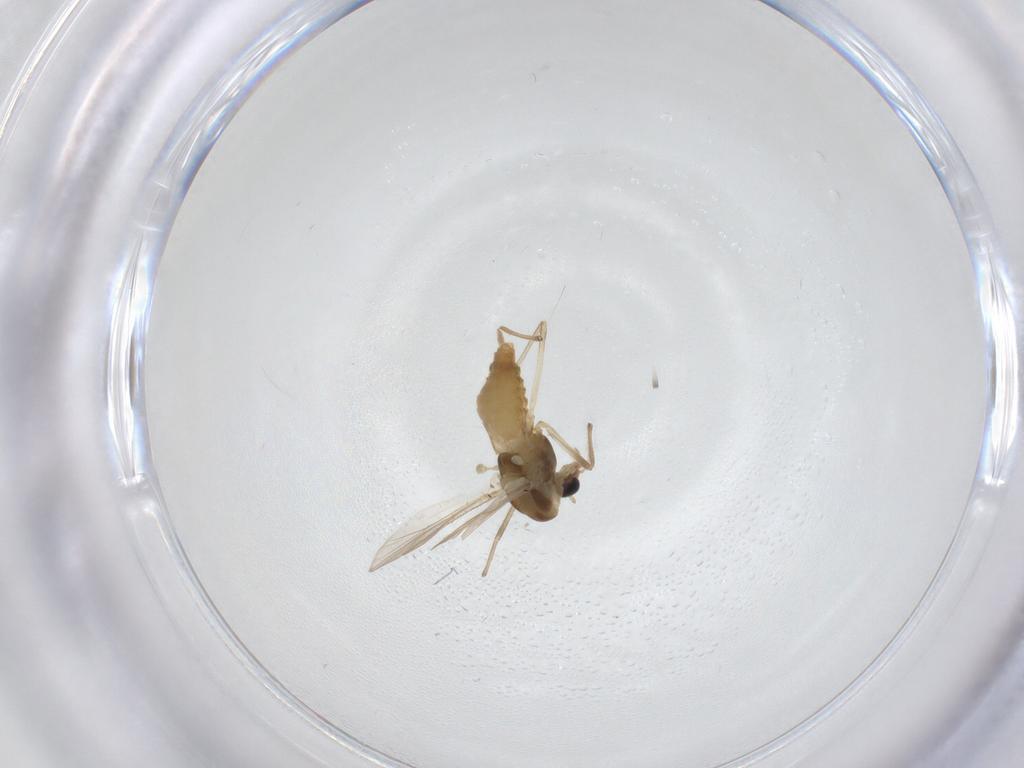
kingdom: Animalia
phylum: Arthropoda
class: Insecta
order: Diptera
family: Chironomidae
